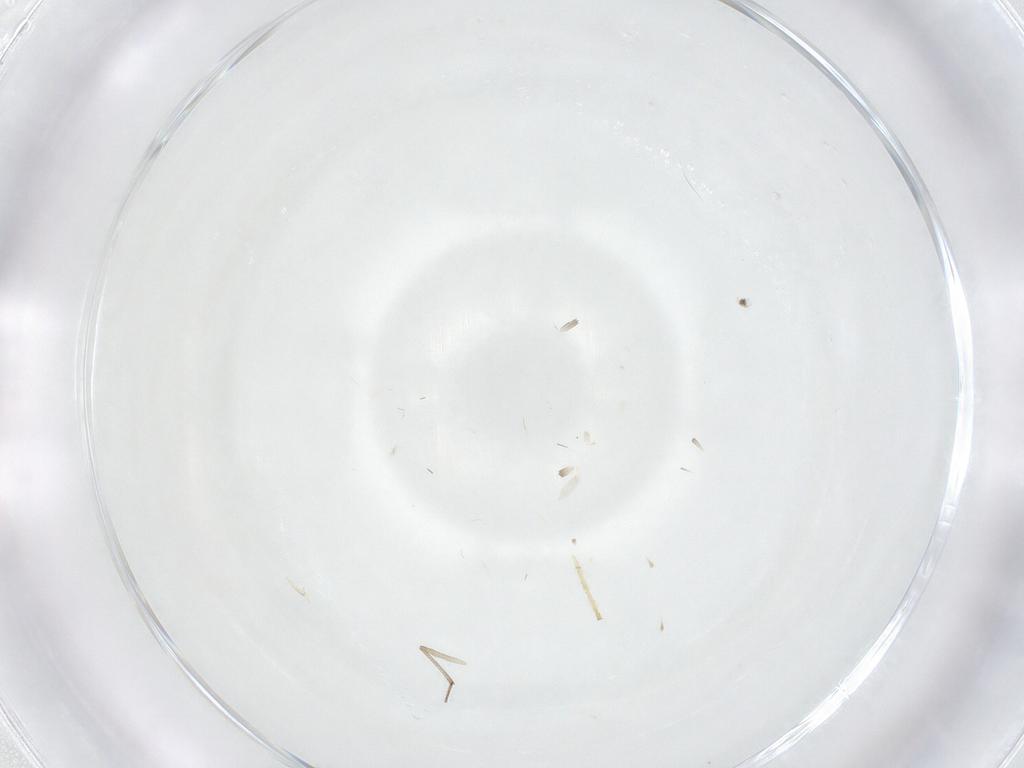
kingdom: Animalia
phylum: Arthropoda
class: Insecta
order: Diptera
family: Cecidomyiidae
